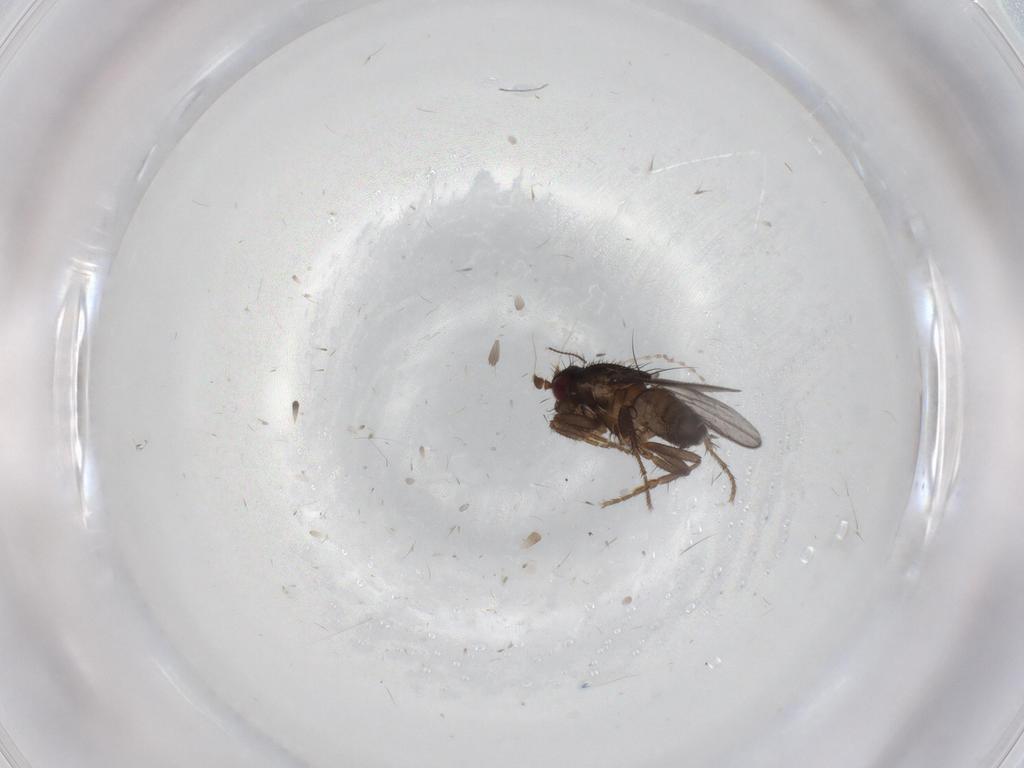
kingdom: Animalia
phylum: Arthropoda
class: Insecta
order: Diptera
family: Sphaeroceridae
